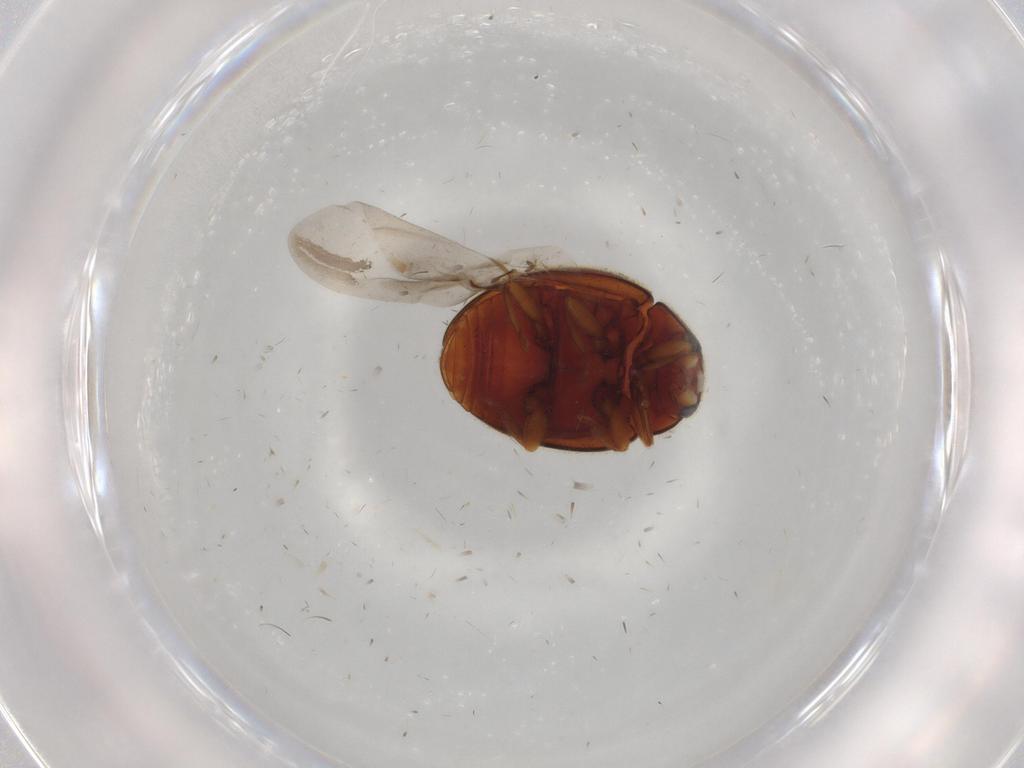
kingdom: Animalia
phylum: Arthropoda
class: Insecta
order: Coleoptera
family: Coccinellidae
